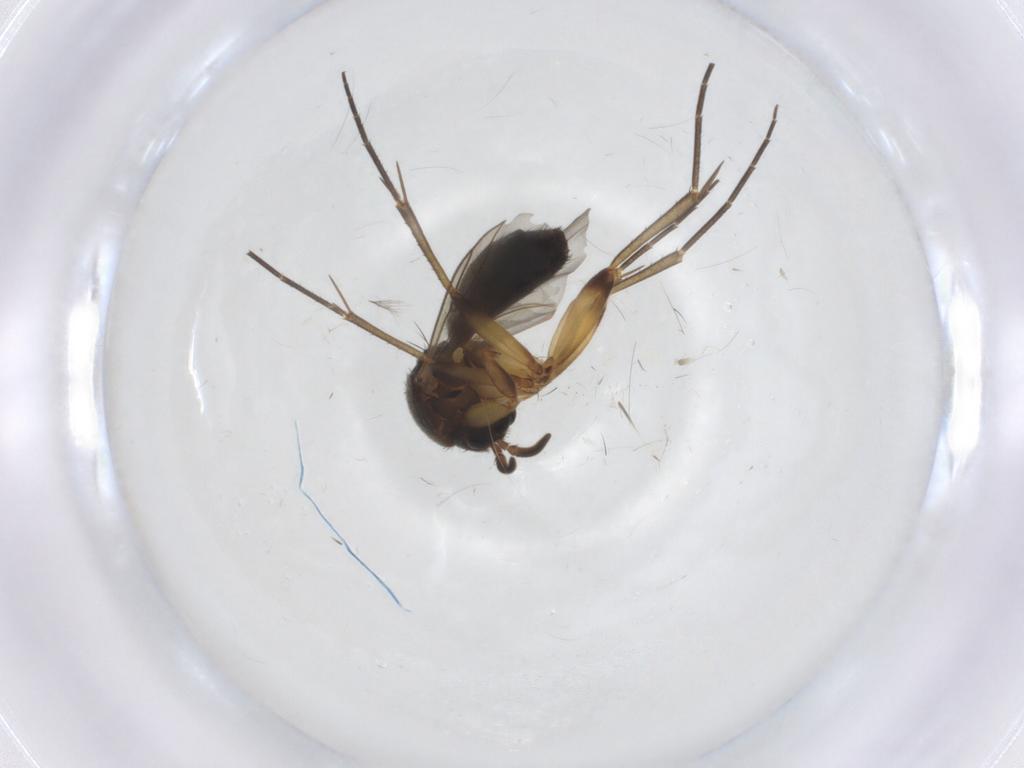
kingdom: Animalia
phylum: Arthropoda
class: Insecta
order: Diptera
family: Mycetophilidae
